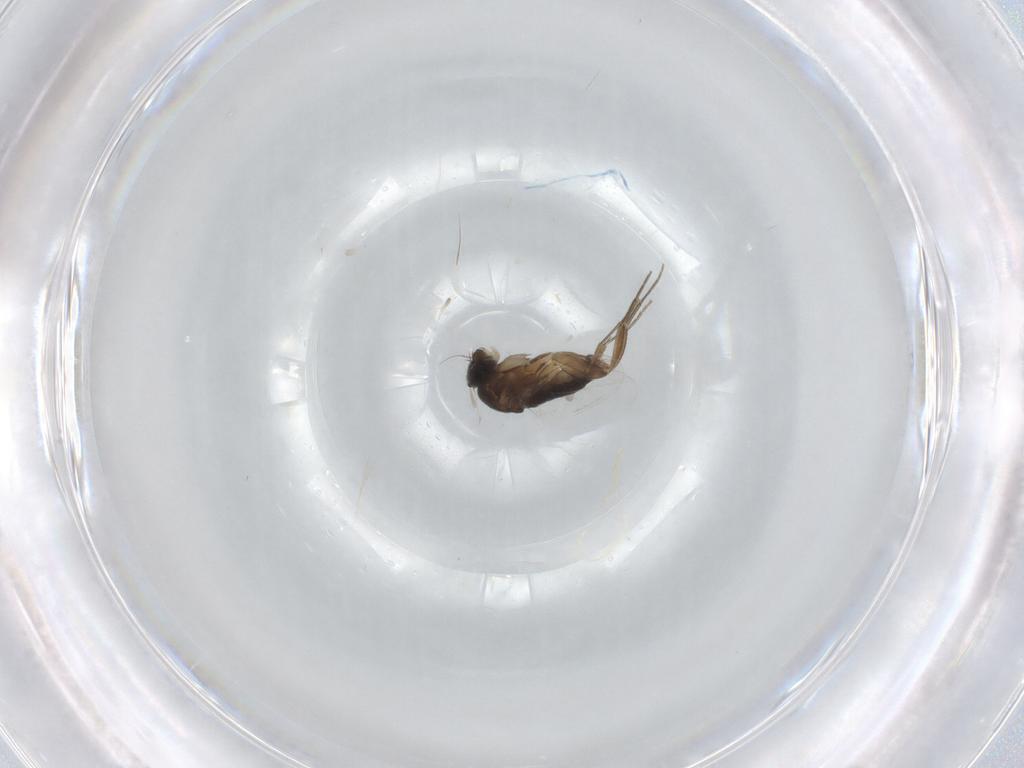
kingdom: Animalia
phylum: Arthropoda
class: Insecta
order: Diptera
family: Phoridae
